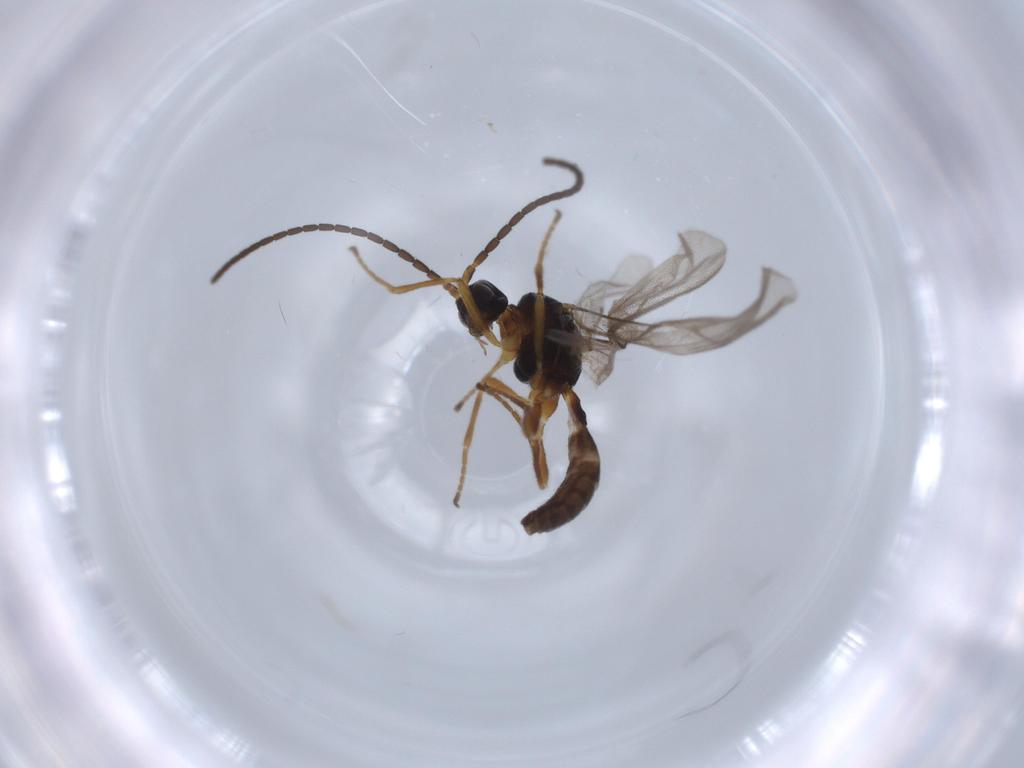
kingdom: Animalia
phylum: Arthropoda
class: Insecta
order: Hymenoptera
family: Braconidae
